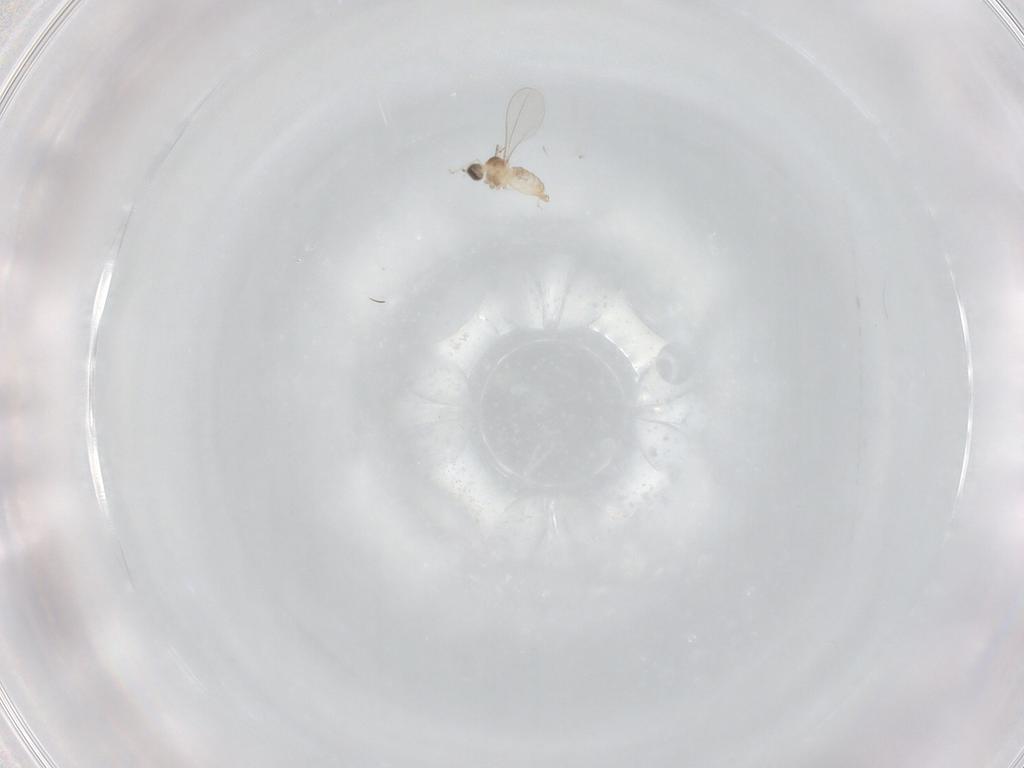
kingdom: Animalia
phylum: Arthropoda
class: Insecta
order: Diptera
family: Cecidomyiidae
